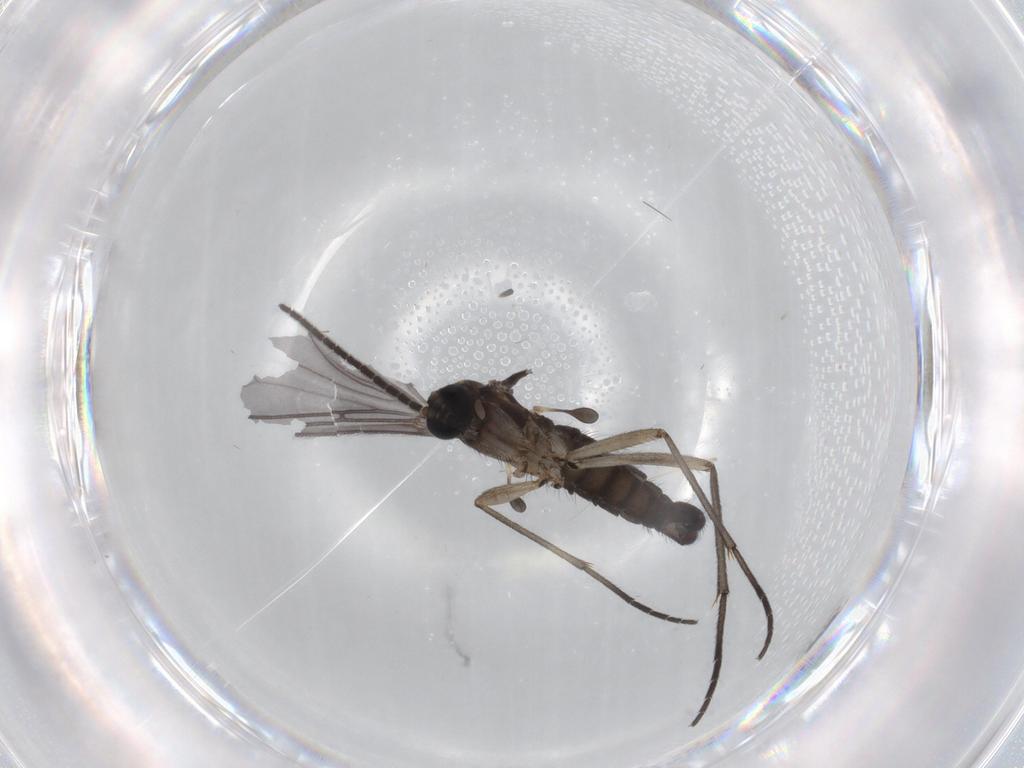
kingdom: Animalia
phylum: Arthropoda
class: Insecta
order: Diptera
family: Sciaridae
